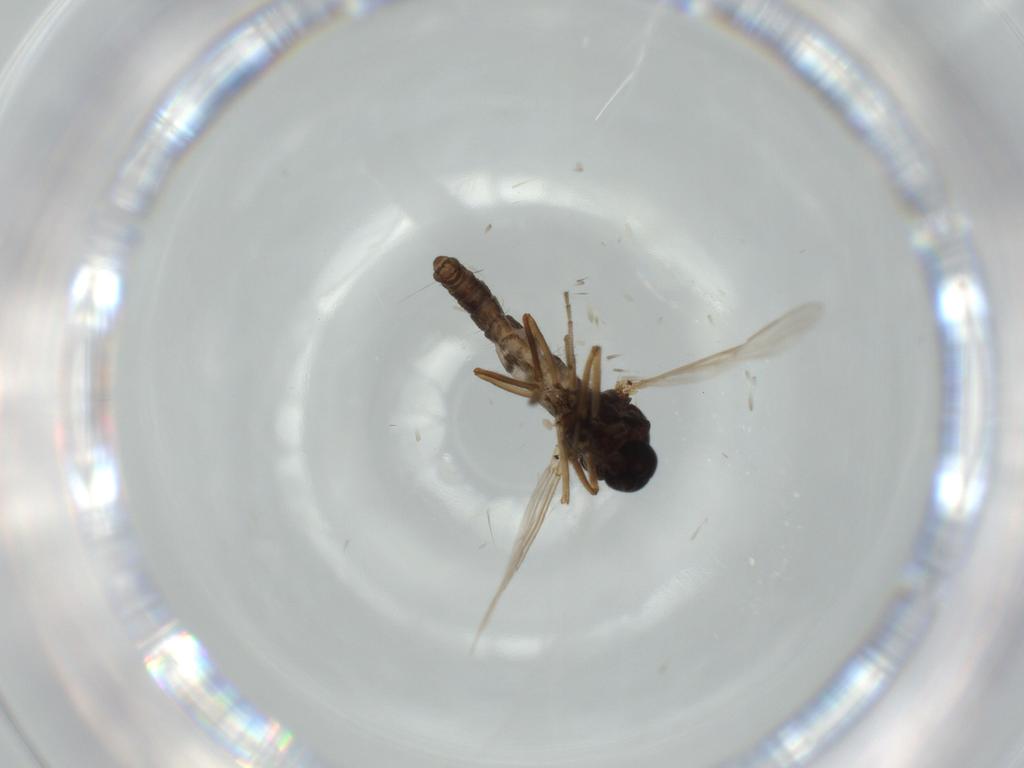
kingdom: Animalia
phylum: Arthropoda
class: Insecta
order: Diptera
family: Ceratopogonidae
